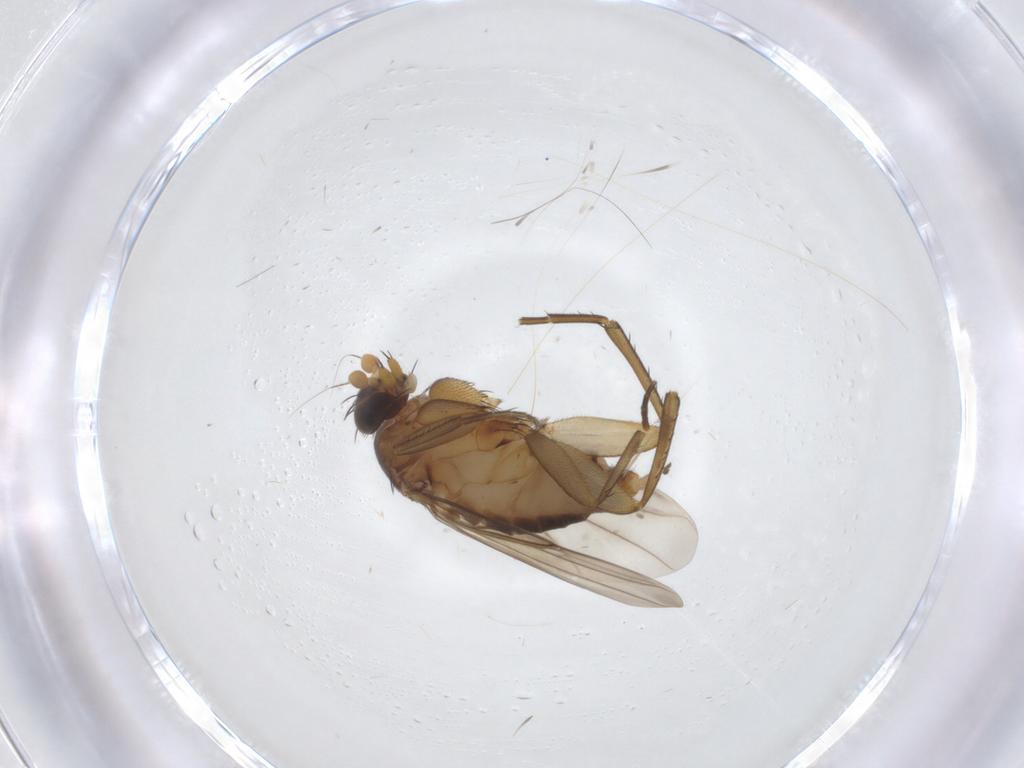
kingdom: Animalia
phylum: Arthropoda
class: Insecta
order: Diptera
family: Phoridae
